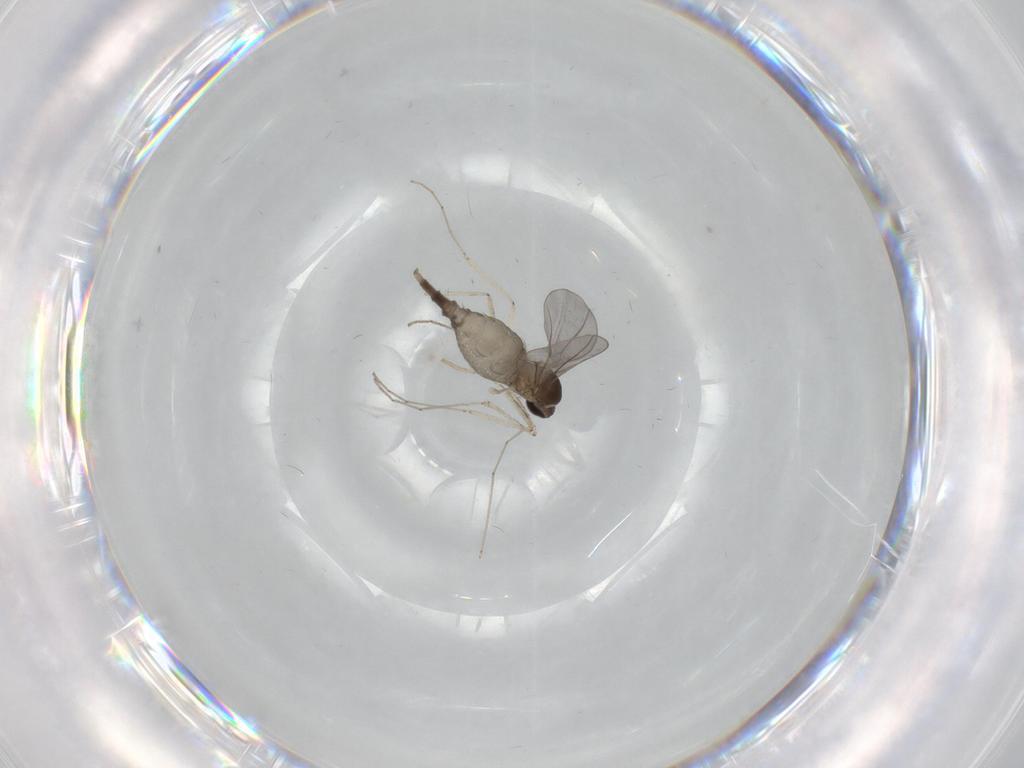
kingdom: Animalia
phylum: Arthropoda
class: Insecta
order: Diptera
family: Cecidomyiidae
